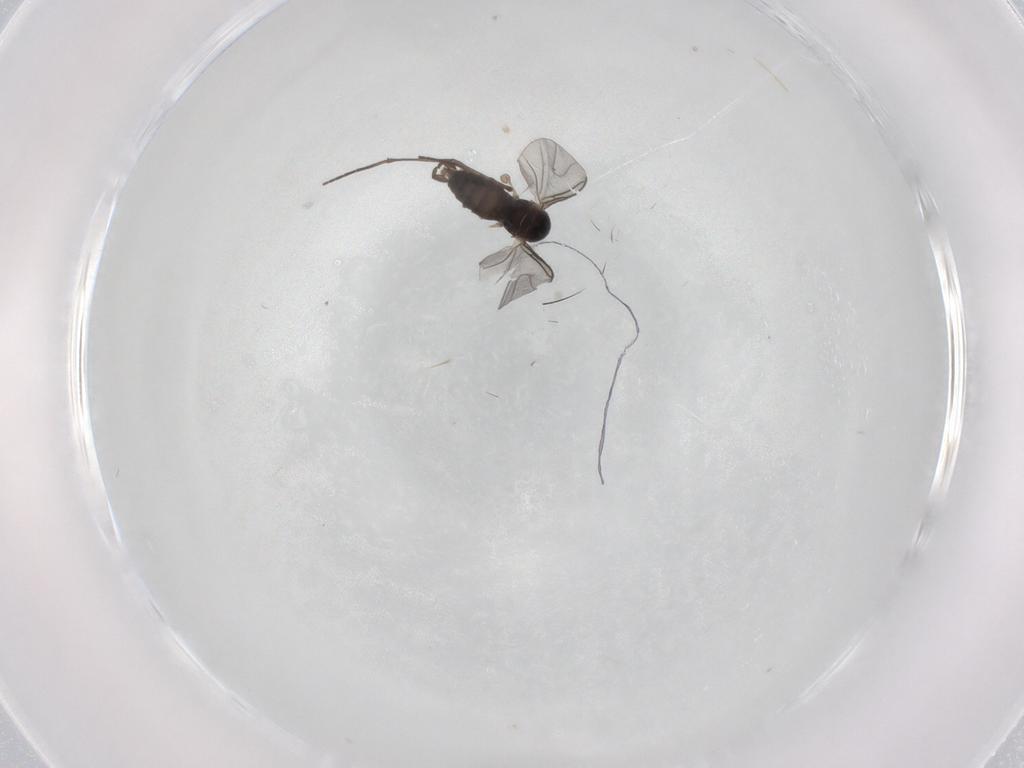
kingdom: Animalia
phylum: Arthropoda
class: Insecta
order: Diptera
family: Sciaridae
